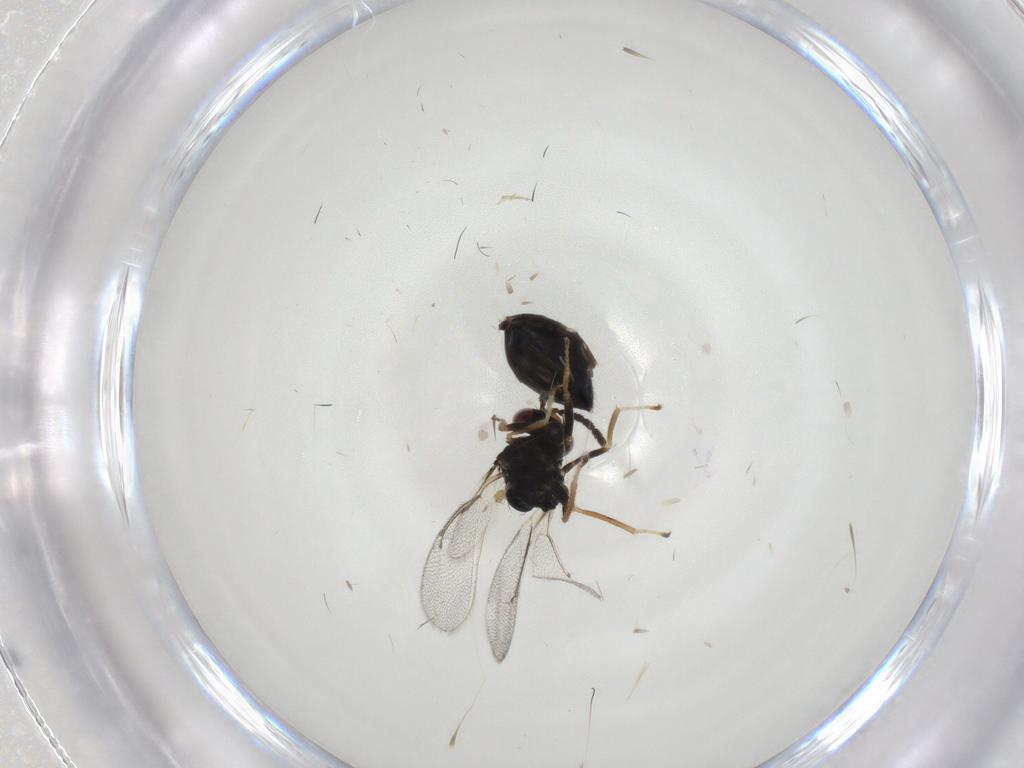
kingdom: Animalia
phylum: Arthropoda
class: Insecta
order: Hymenoptera
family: Eulophidae
